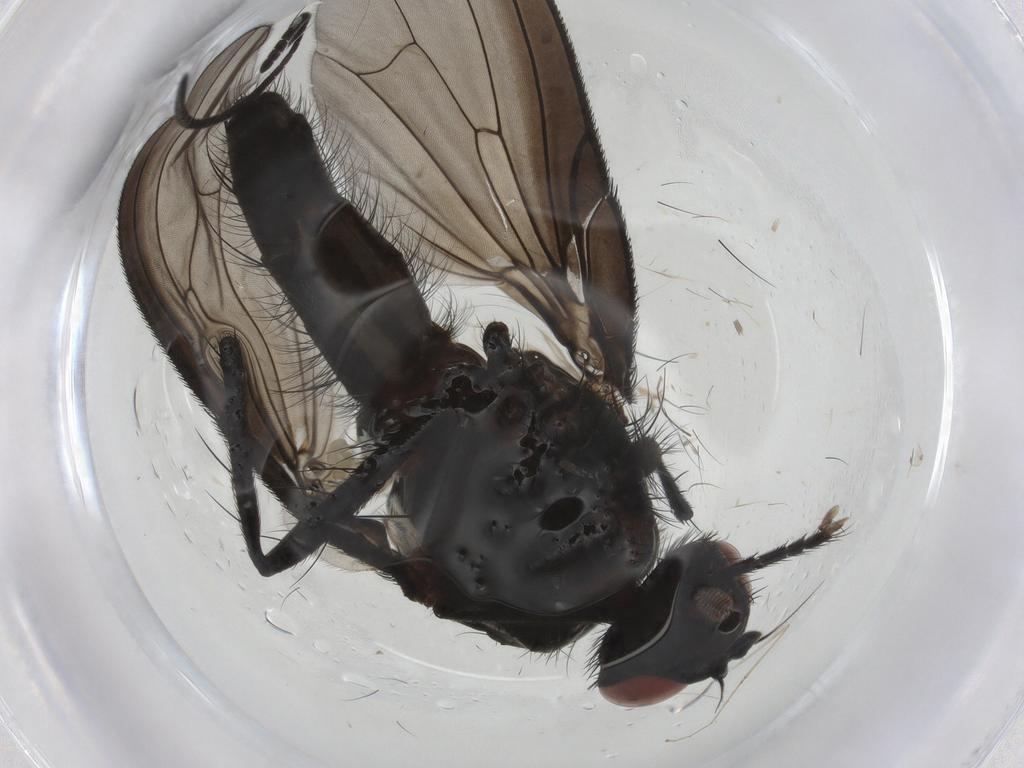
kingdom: Animalia
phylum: Arthropoda
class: Insecta
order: Diptera
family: Anthomyiidae
